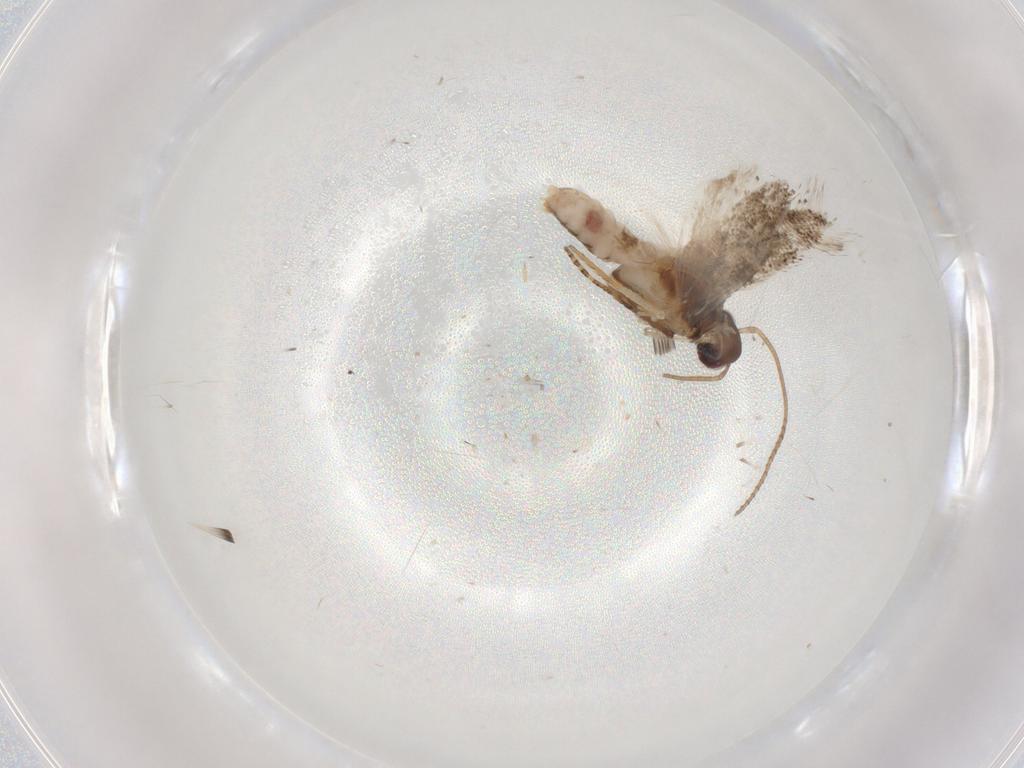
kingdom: Animalia
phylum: Arthropoda
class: Insecta
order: Lepidoptera
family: Gelechiidae
